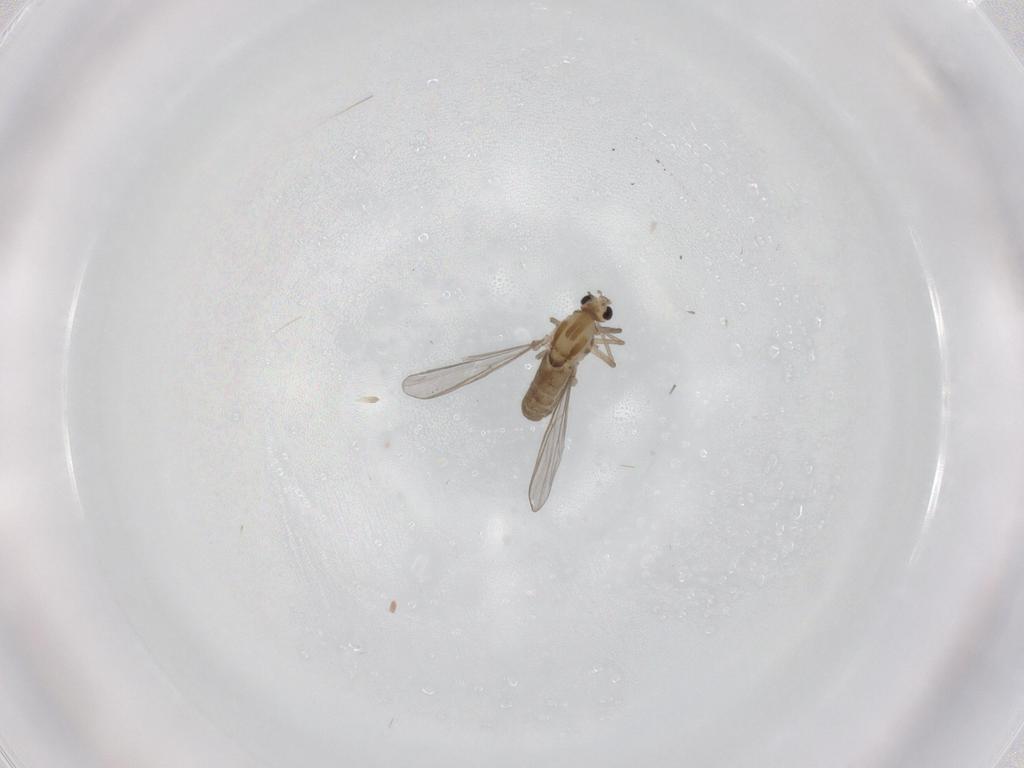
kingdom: Animalia
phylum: Arthropoda
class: Insecta
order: Diptera
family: Chironomidae
